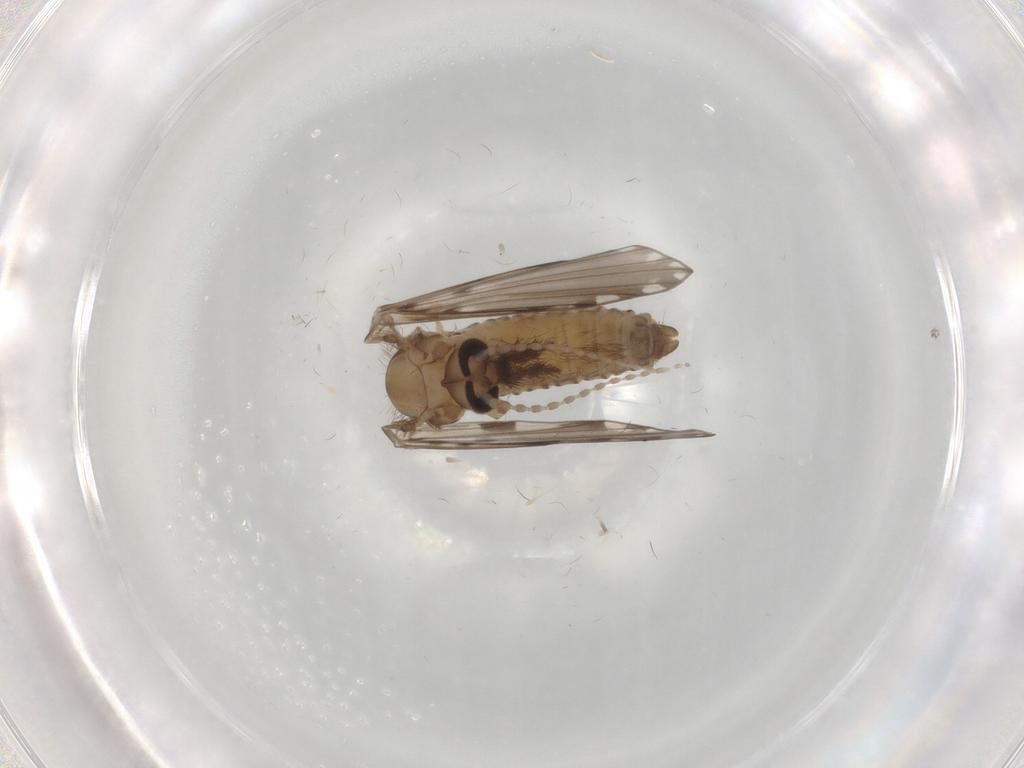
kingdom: Animalia
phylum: Arthropoda
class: Insecta
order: Diptera
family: Psychodidae
